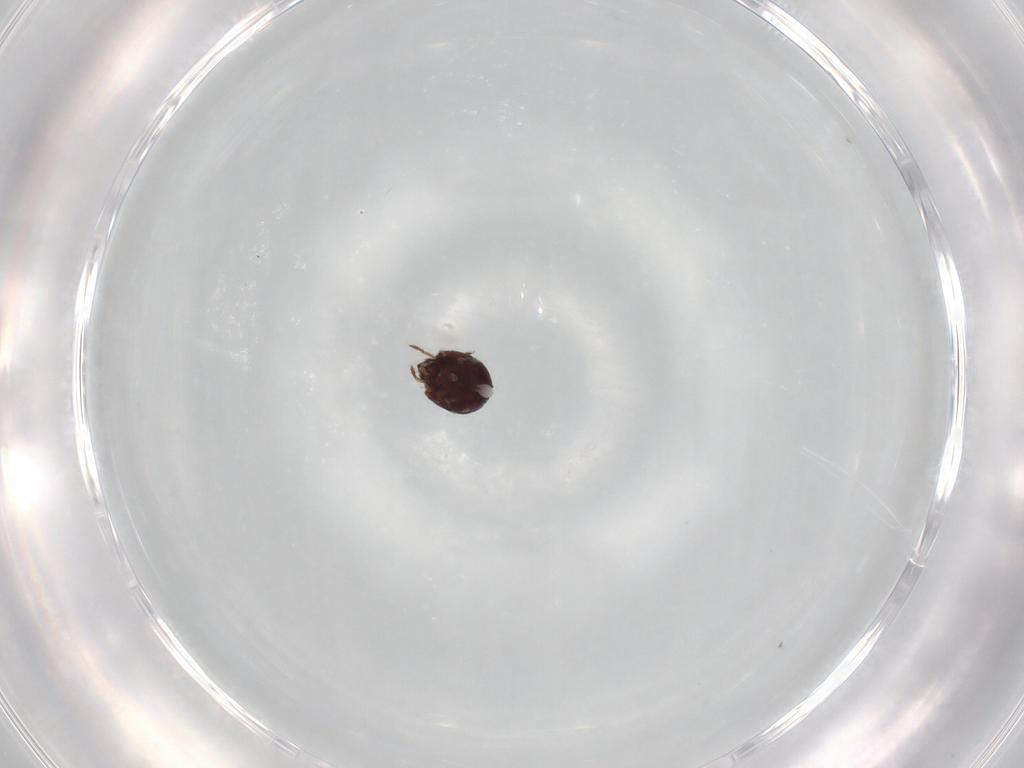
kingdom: Animalia
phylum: Arthropoda
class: Arachnida
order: Sarcoptiformes
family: Humerobatidae
